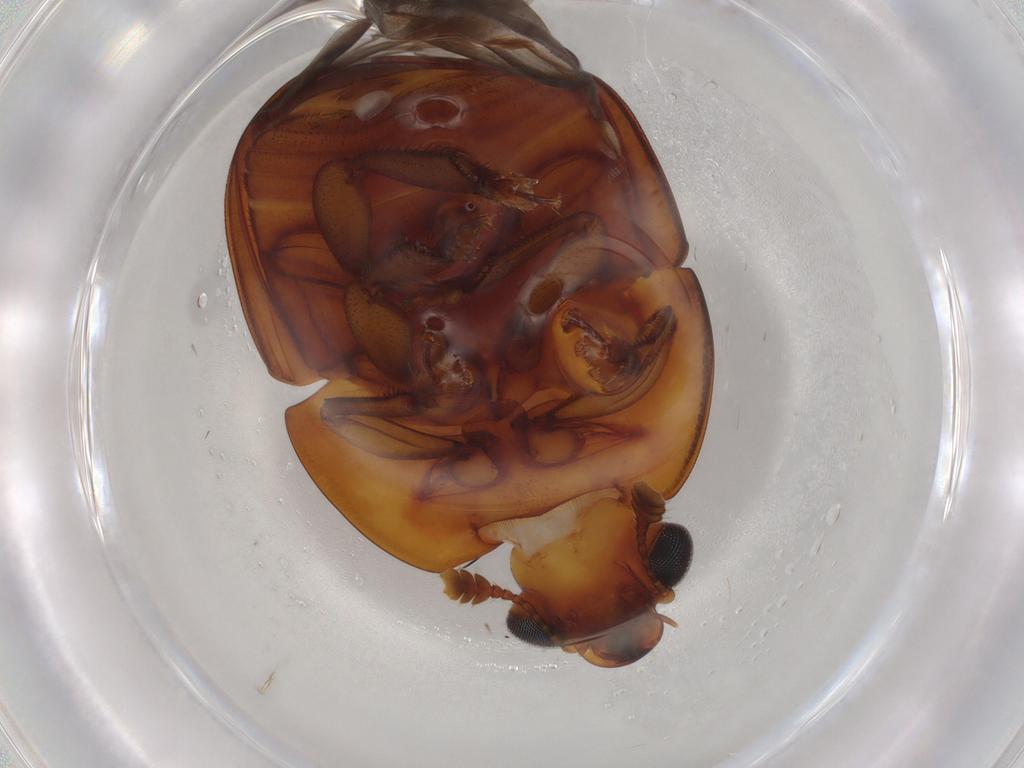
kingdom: Animalia
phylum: Arthropoda
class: Insecta
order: Coleoptera
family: Nitidulidae
